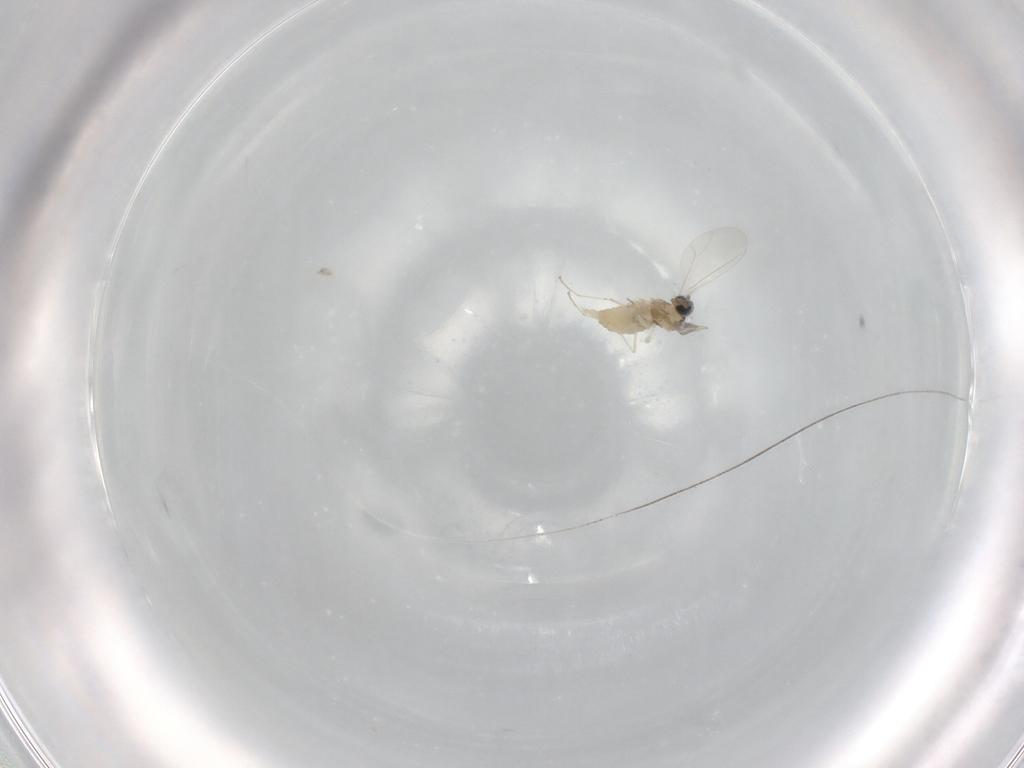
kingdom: Animalia
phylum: Arthropoda
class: Insecta
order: Diptera
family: Cecidomyiidae
